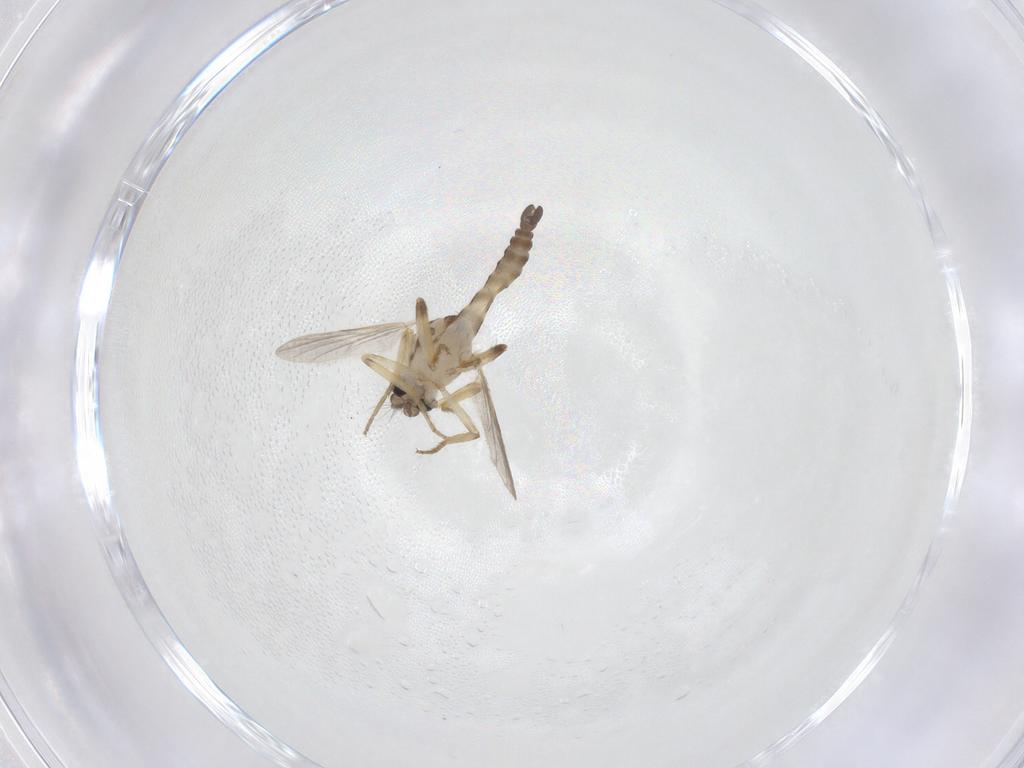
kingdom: Animalia
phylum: Arthropoda
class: Insecta
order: Diptera
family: Ceratopogonidae
